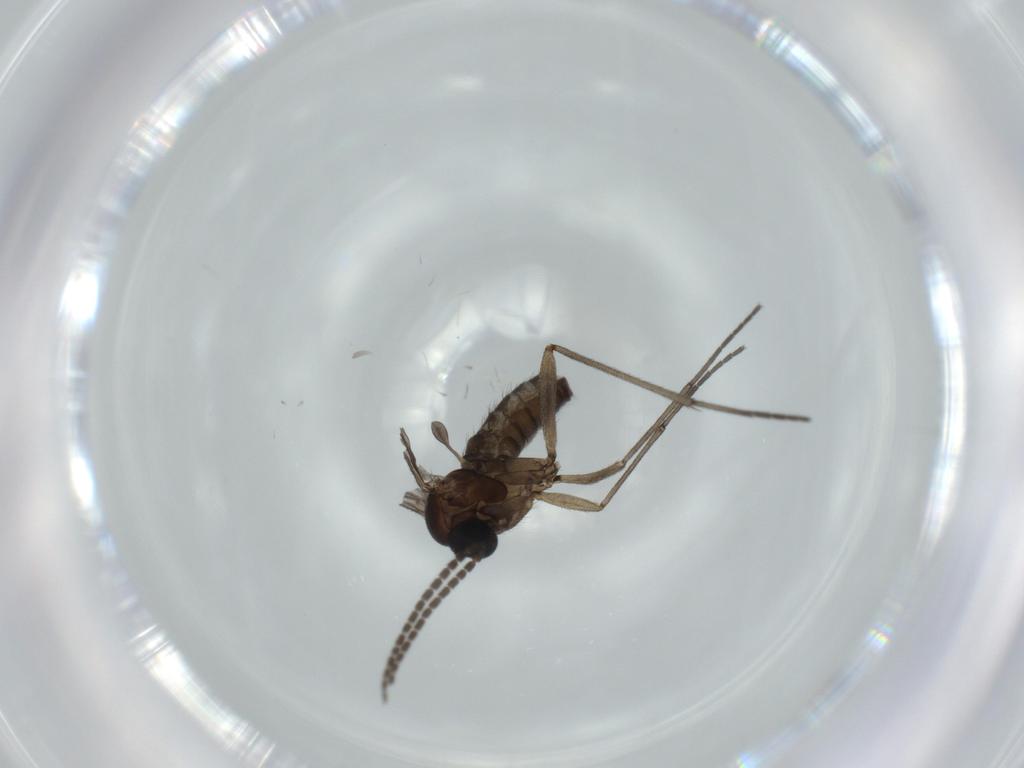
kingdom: Animalia
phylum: Arthropoda
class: Insecta
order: Diptera
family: Sciaridae
